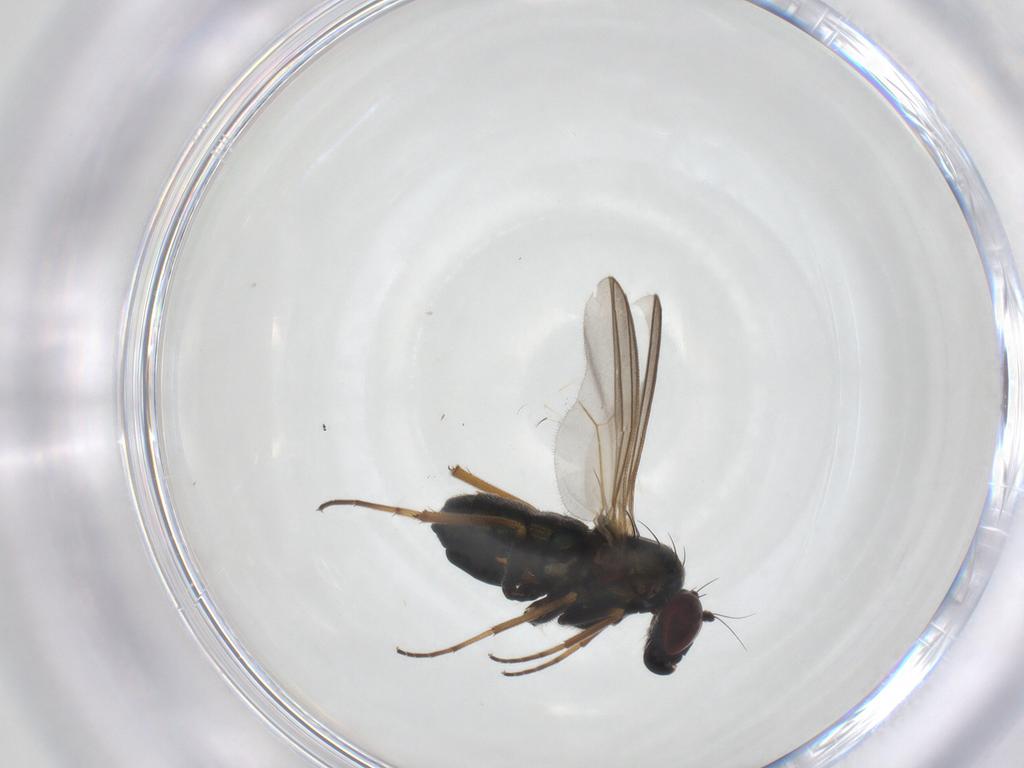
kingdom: Animalia
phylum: Arthropoda
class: Insecta
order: Diptera
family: Dolichopodidae
